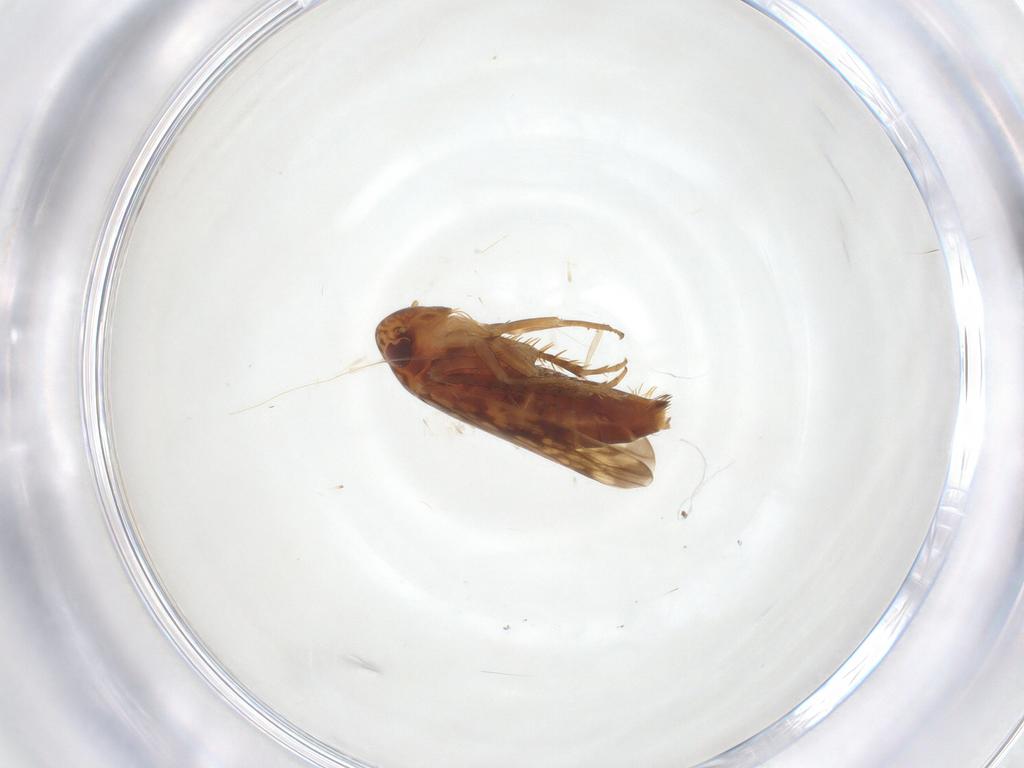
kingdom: Animalia
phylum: Arthropoda
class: Insecta
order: Hemiptera
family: Cicadellidae
